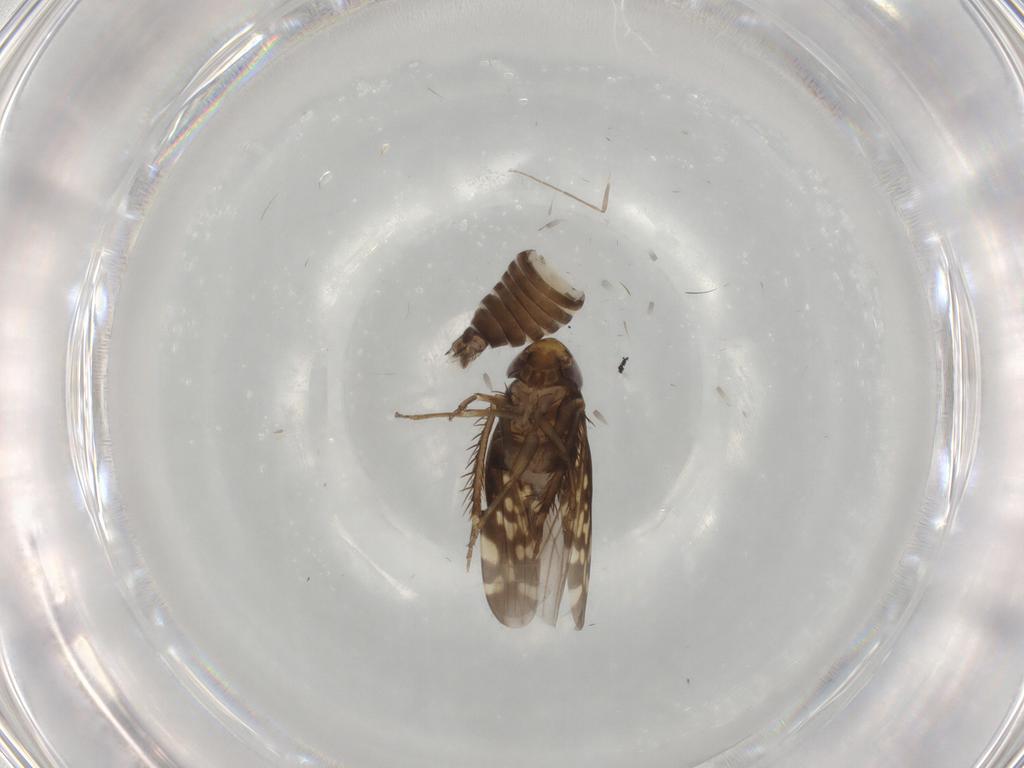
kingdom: Animalia
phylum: Arthropoda
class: Insecta
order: Hemiptera
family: Cicadellidae
